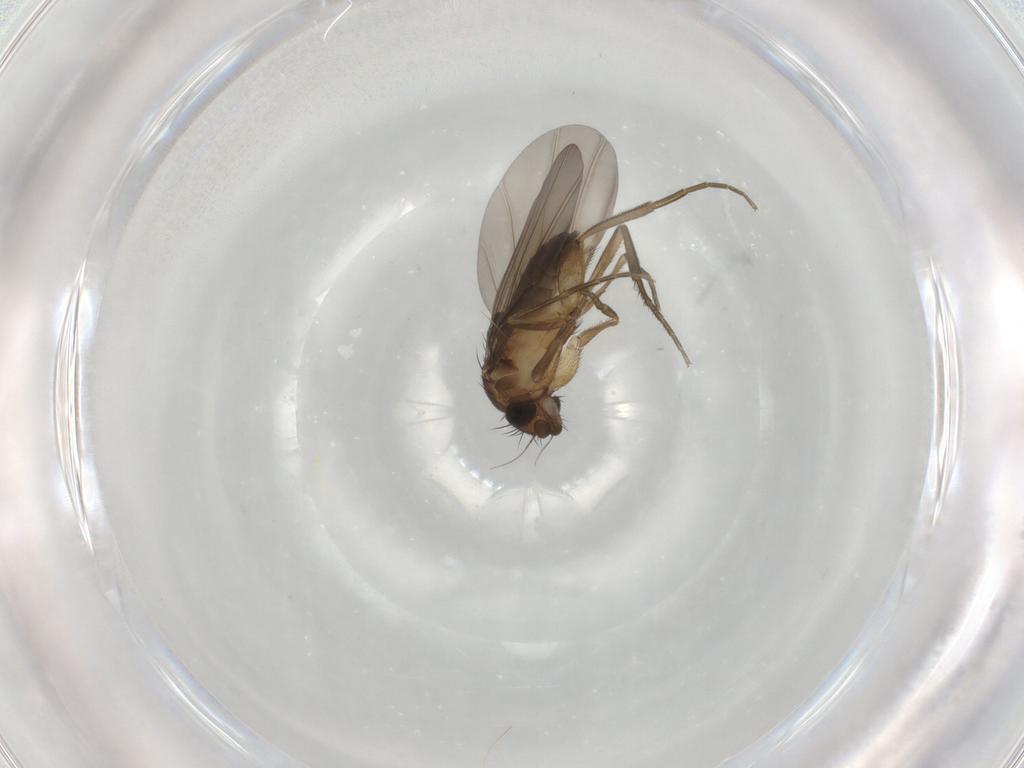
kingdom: Animalia
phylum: Arthropoda
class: Insecta
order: Diptera
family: Phoridae
